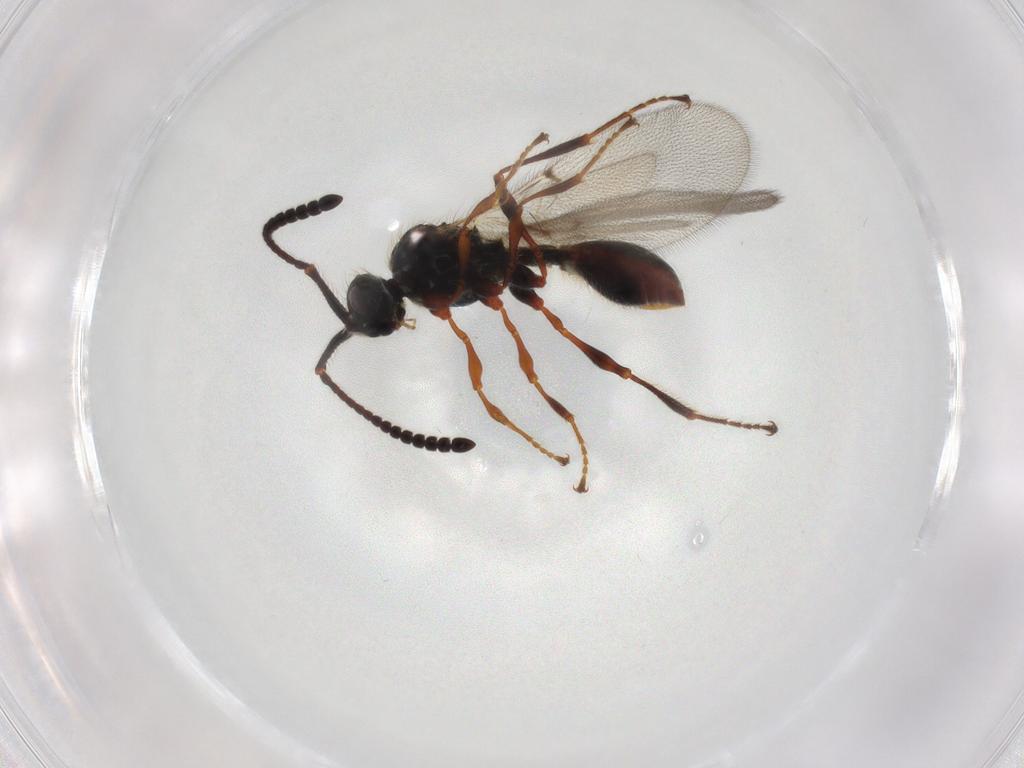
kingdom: Animalia
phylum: Arthropoda
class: Insecta
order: Hymenoptera
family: Diapriidae
